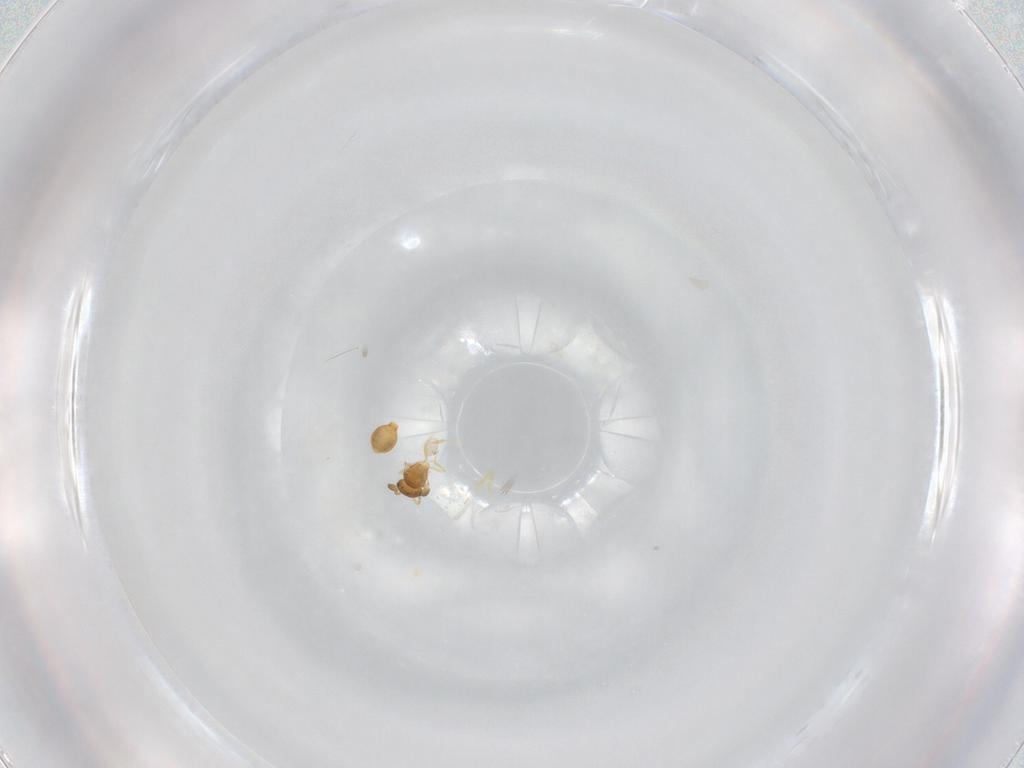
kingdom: Animalia
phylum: Arthropoda
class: Insecta
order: Hymenoptera
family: Scelionidae
